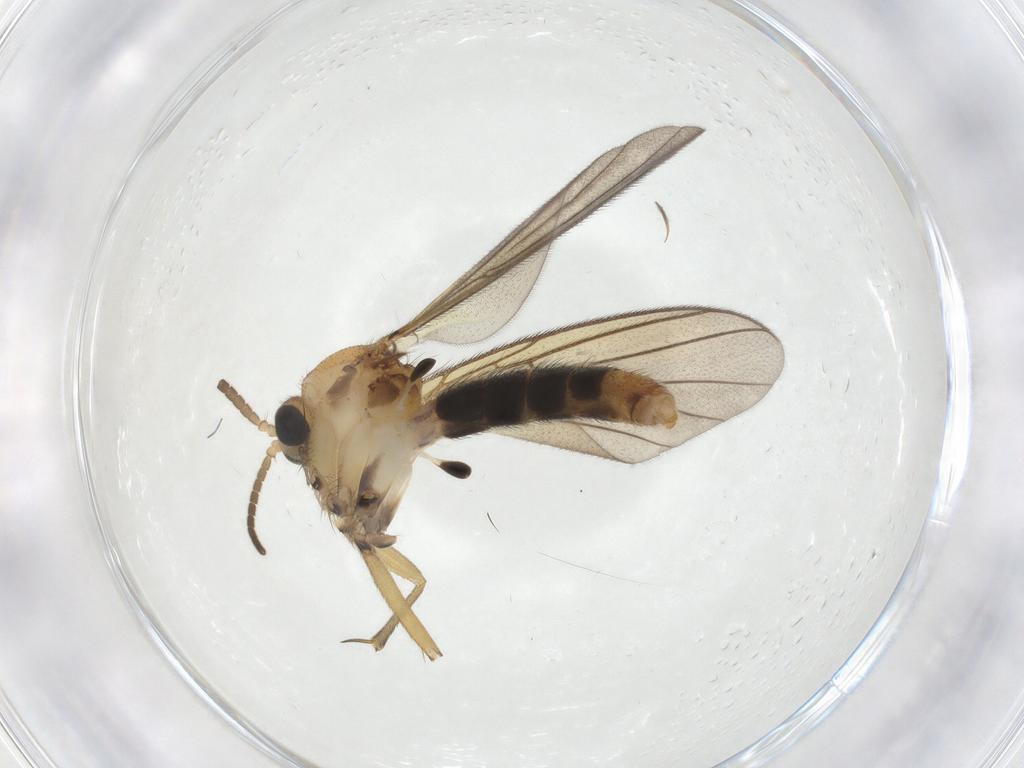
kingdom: Animalia
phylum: Arthropoda
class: Insecta
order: Diptera
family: Mycetophilidae
